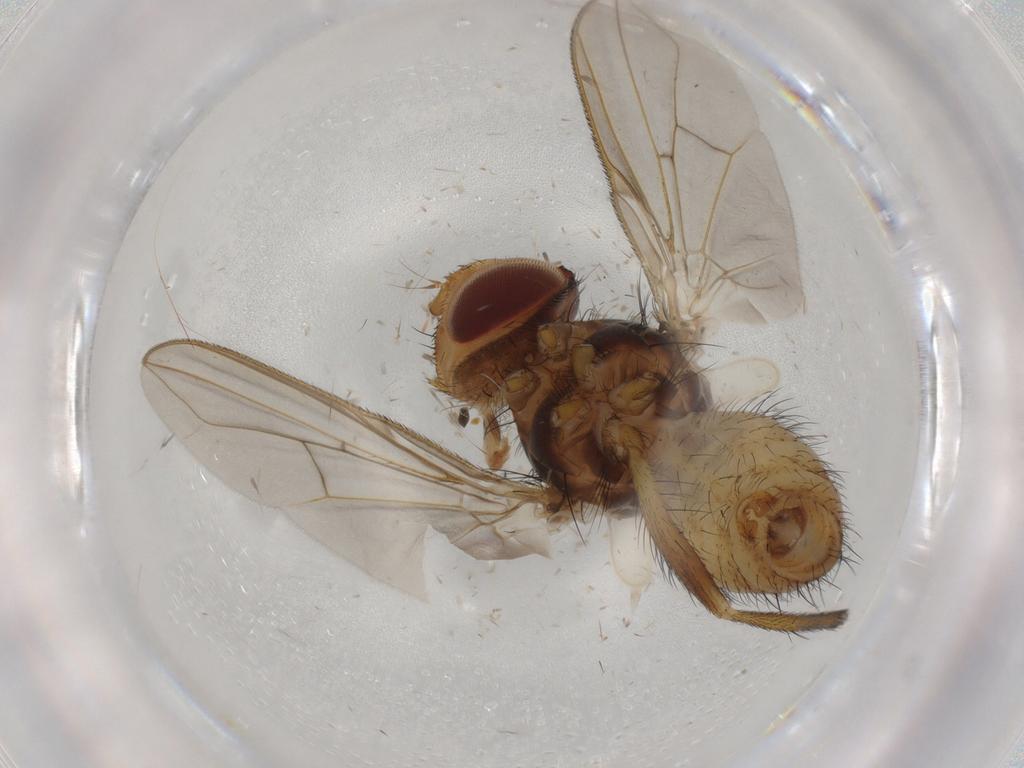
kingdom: Animalia
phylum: Arthropoda
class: Insecta
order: Diptera
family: Tachinidae
